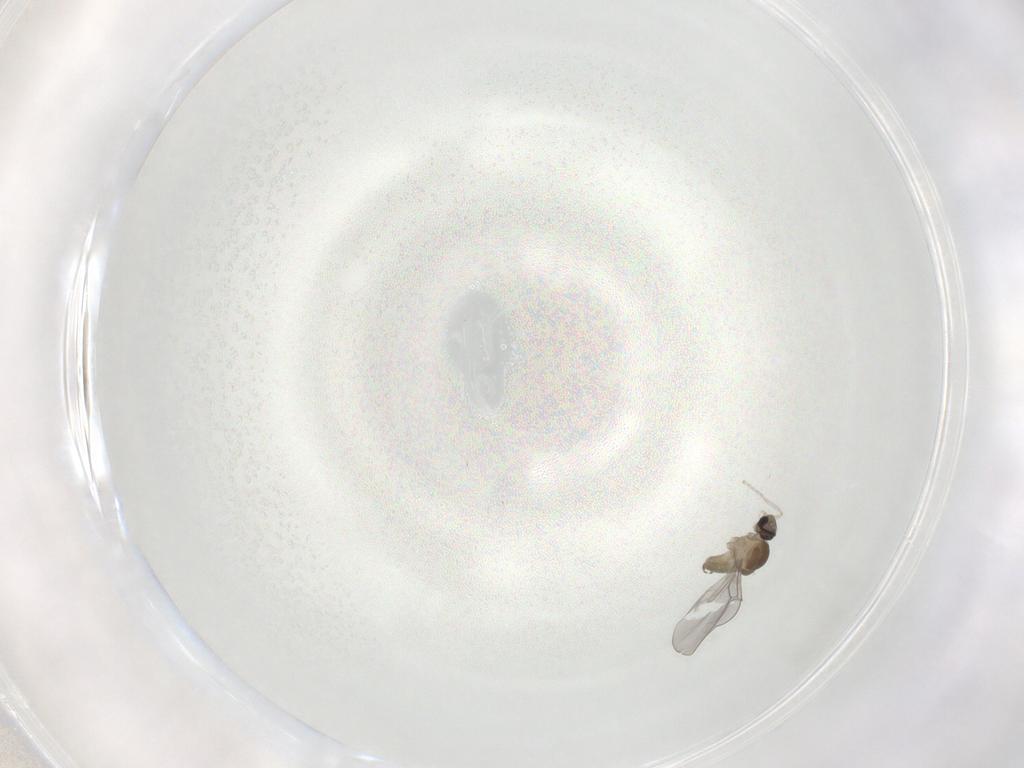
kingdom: Animalia
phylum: Arthropoda
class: Insecta
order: Diptera
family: Cecidomyiidae
